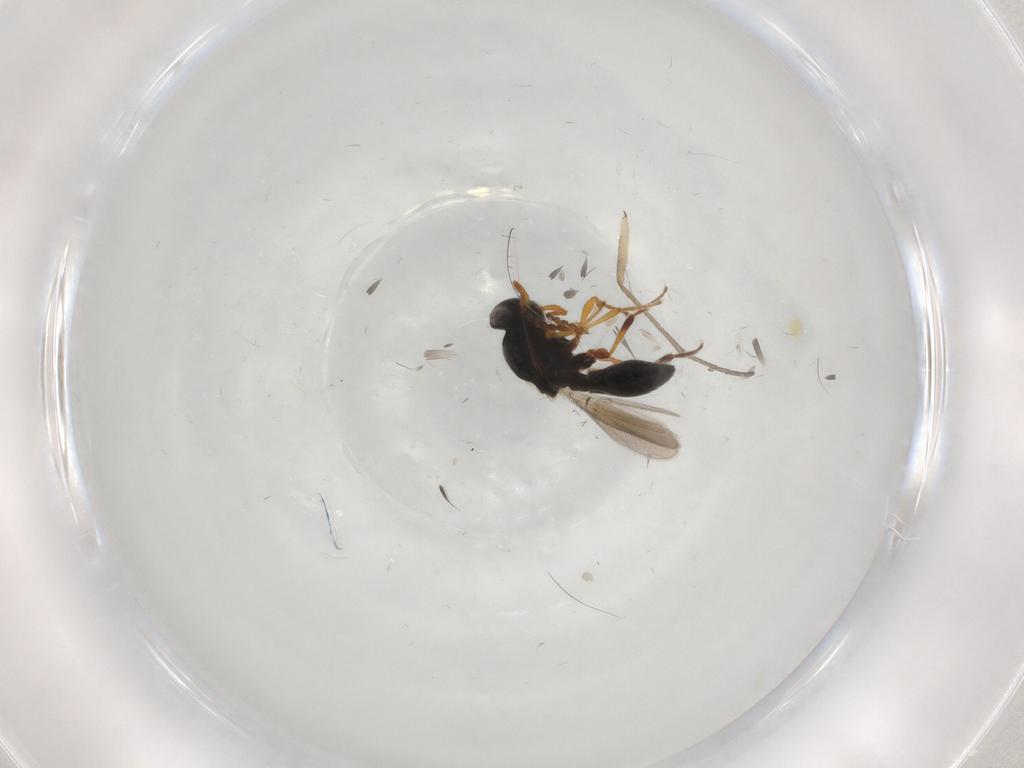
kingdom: Animalia
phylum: Arthropoda
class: Insecta
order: Hymenoptera
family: Platygastridae
